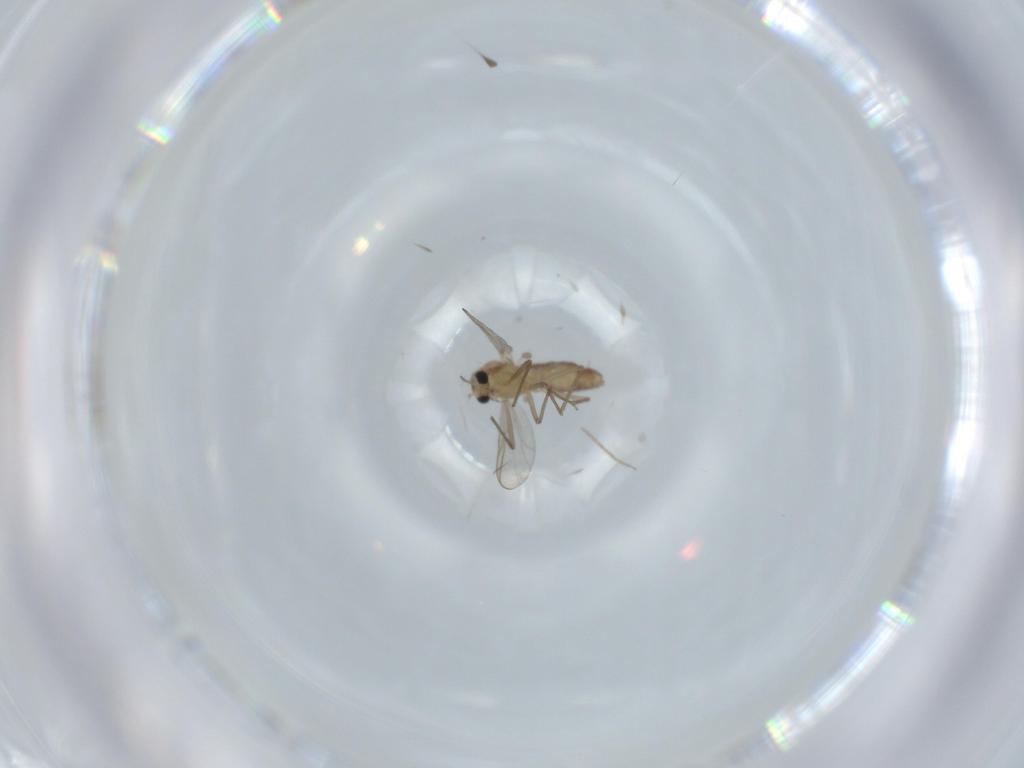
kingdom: Animalia
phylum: Arthropoda
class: Insecta
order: Diptera
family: Chironomidae
